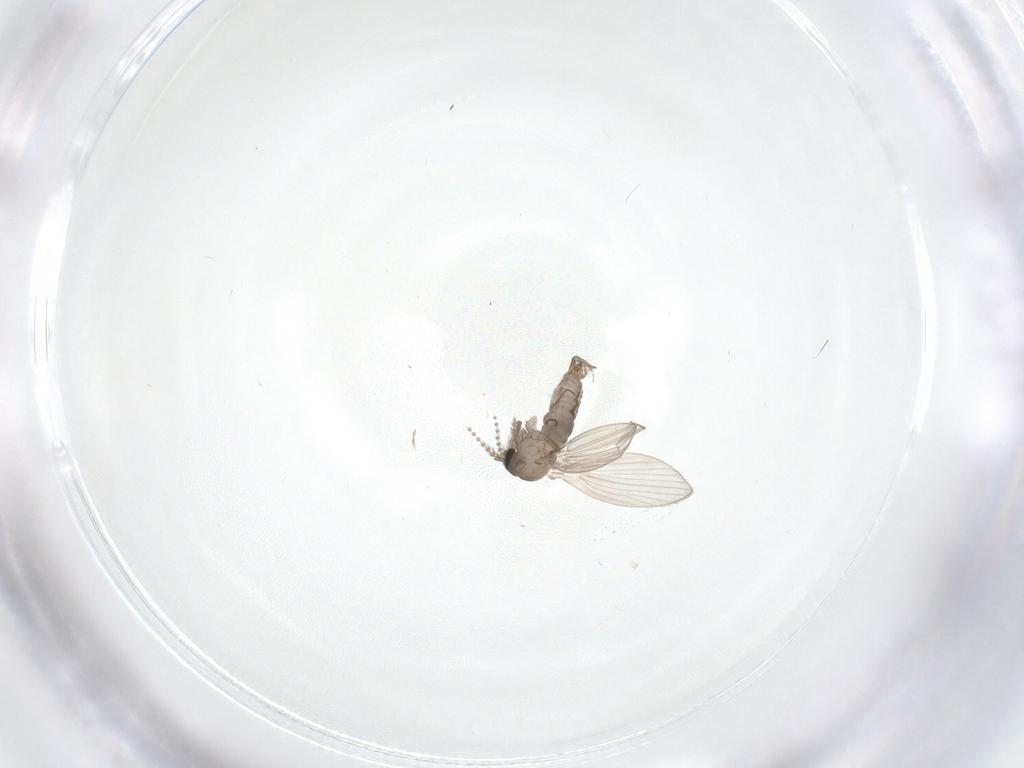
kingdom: Animalia
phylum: Arthropoda
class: Insecta
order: Diptera
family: Psychodidae
